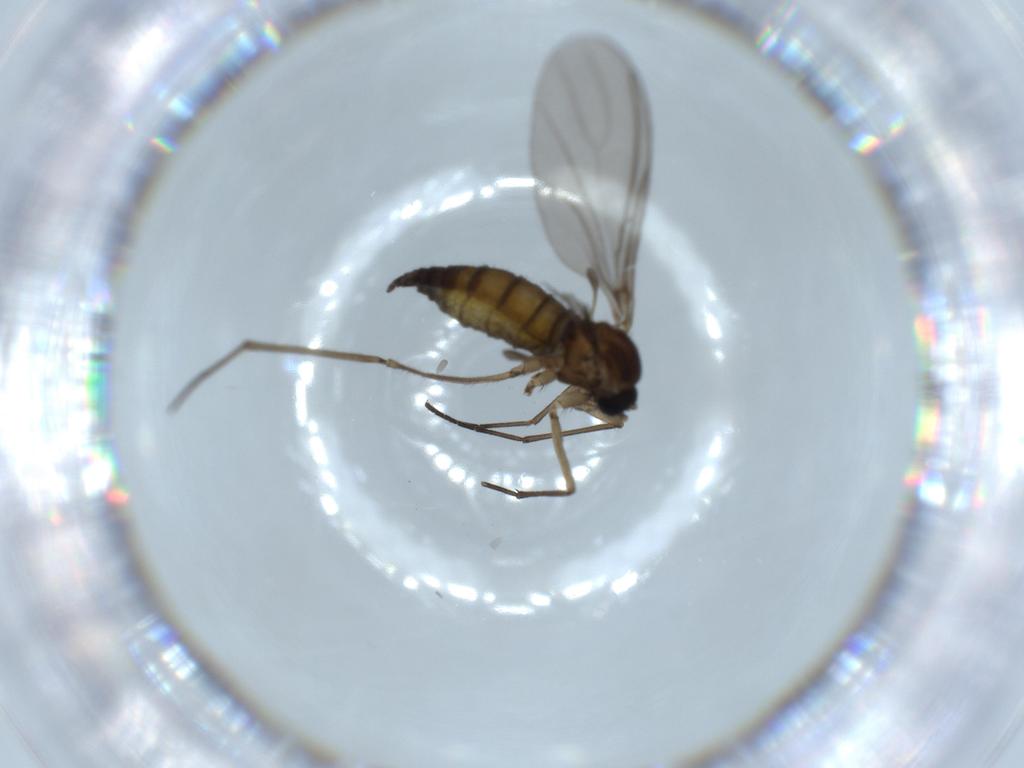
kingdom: Animalia
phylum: Arthropoda
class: Insecta
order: Diptera
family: Sciaridae
